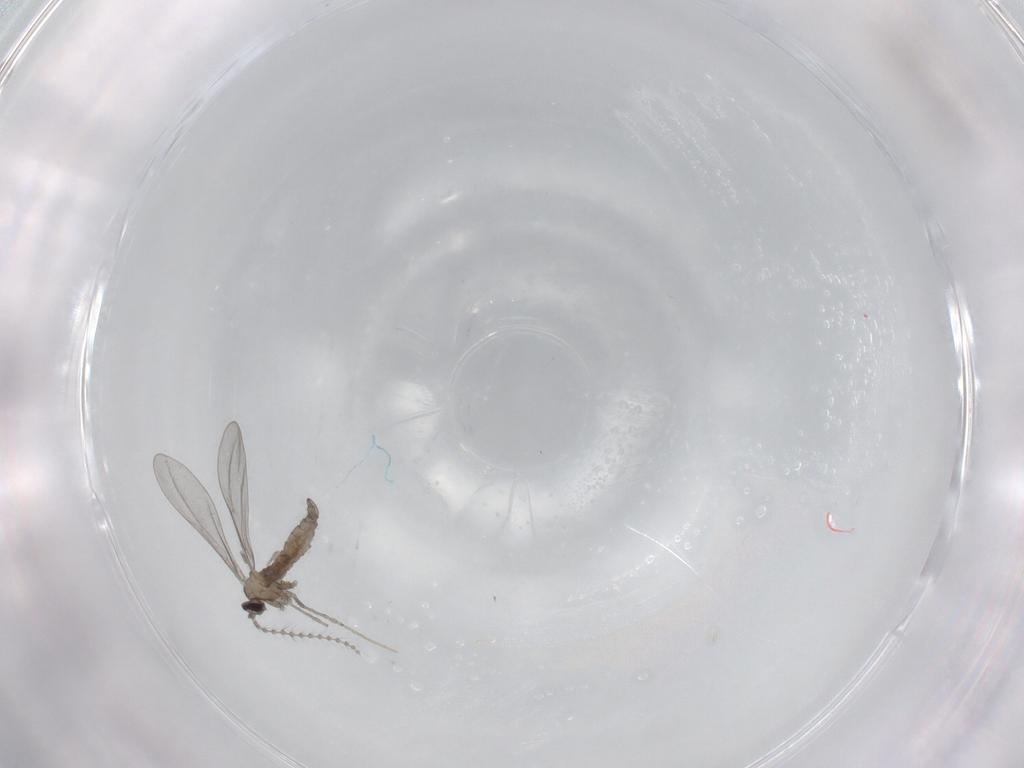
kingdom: Animalia
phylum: Arthropoda
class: Insecta
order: Diptera
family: Cecidomyiidae
